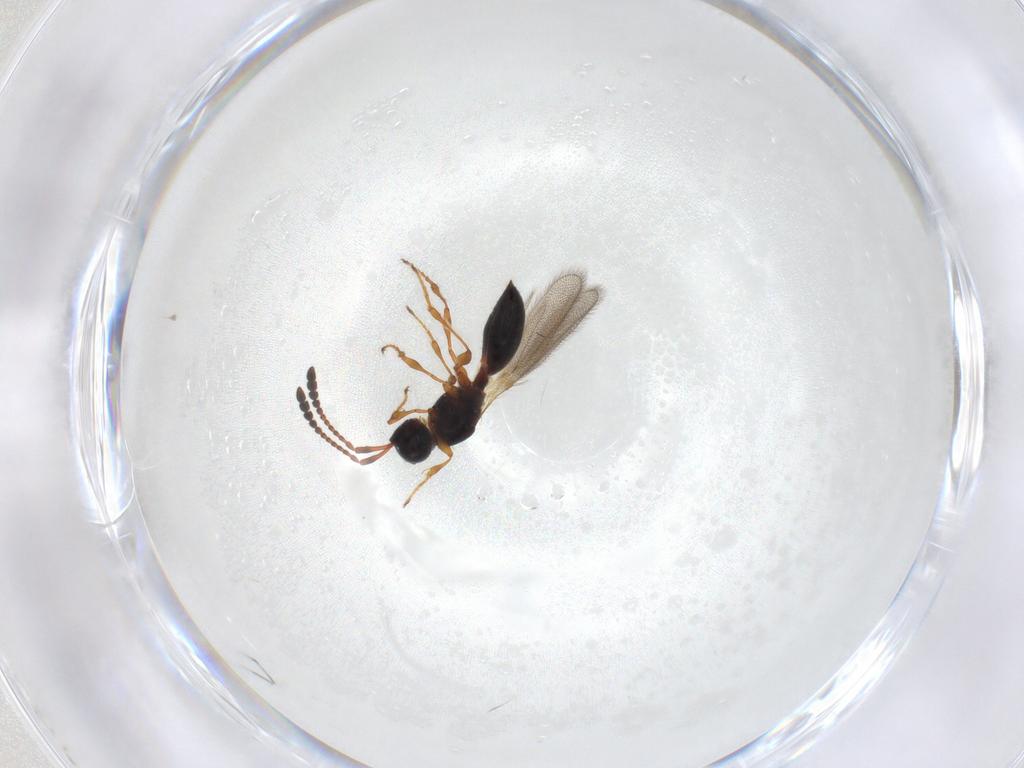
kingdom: Animalia
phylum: Arthropoda
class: Insecta
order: Hymenoptera
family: Diapriidae
